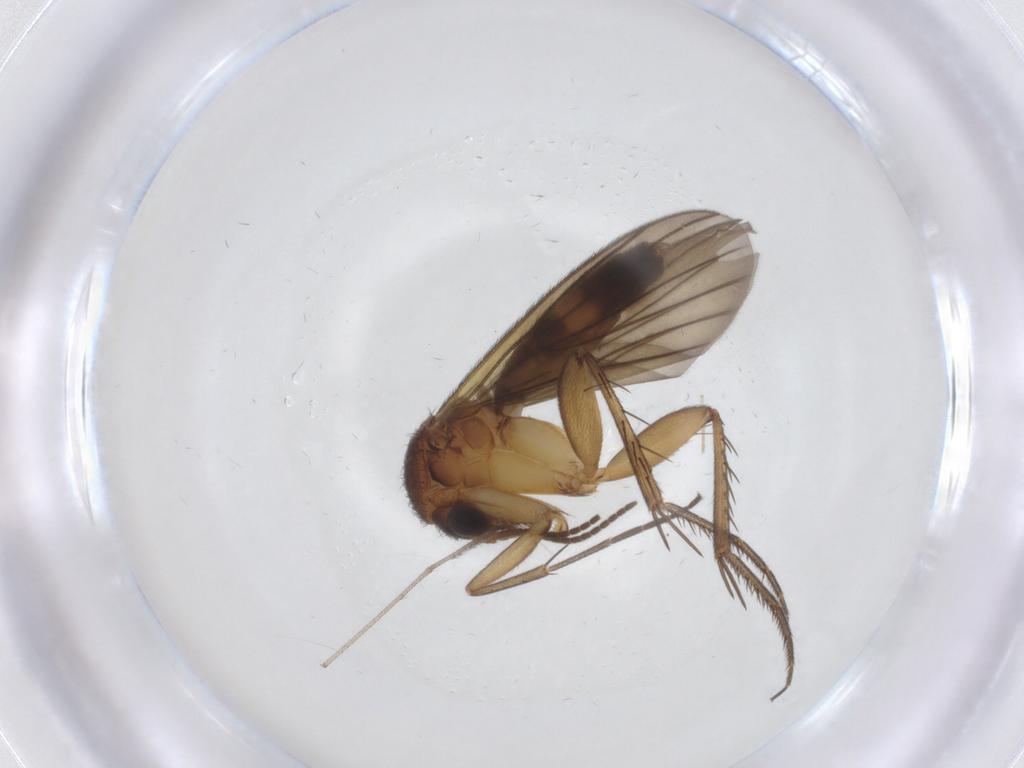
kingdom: Animalia
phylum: Arthropoda
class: Insecta
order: Diptera
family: Mycetophilidae
